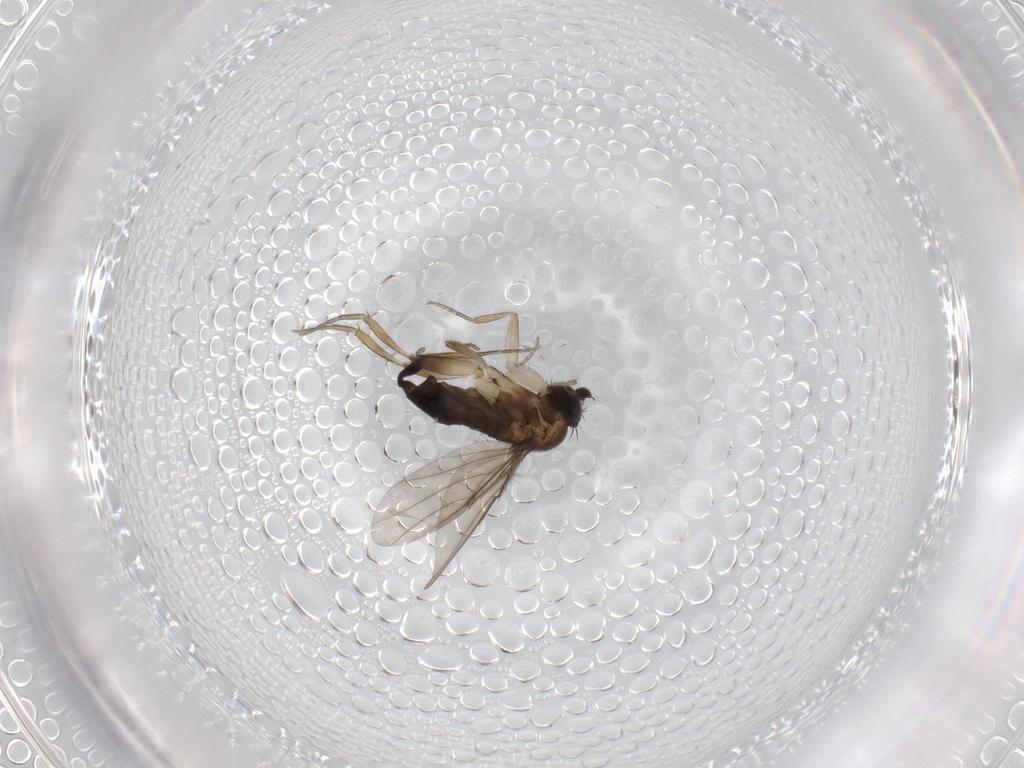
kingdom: Animalia
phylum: Arthropoda
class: Insecta
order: Diptera
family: Phoridae
